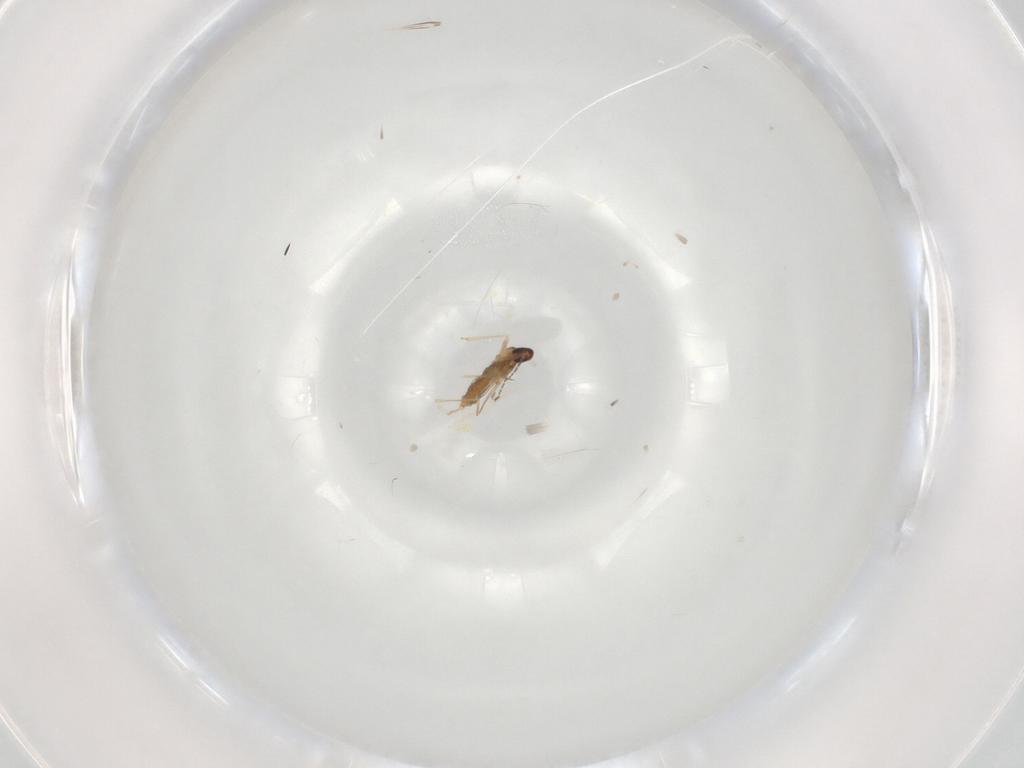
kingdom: Animalia
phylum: Arthropoda
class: Insecta
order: Diptera
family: Cecidomyiidae
